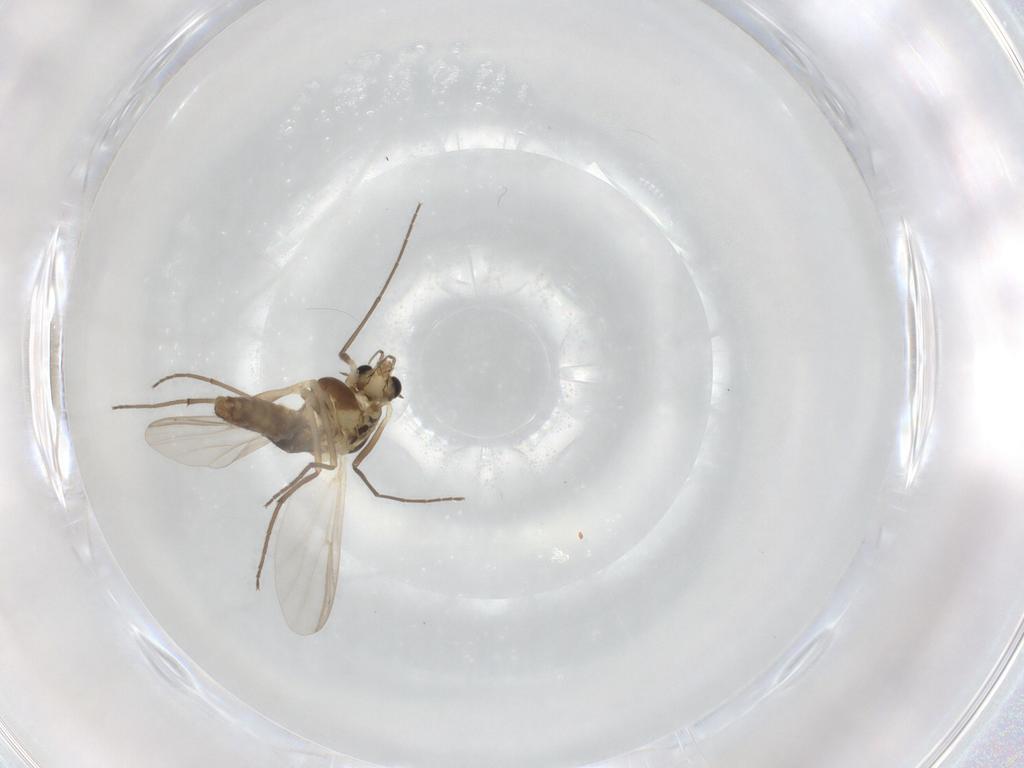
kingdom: Animalia
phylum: Arthropoda
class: Insecta
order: Diptera
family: Chironomidae
